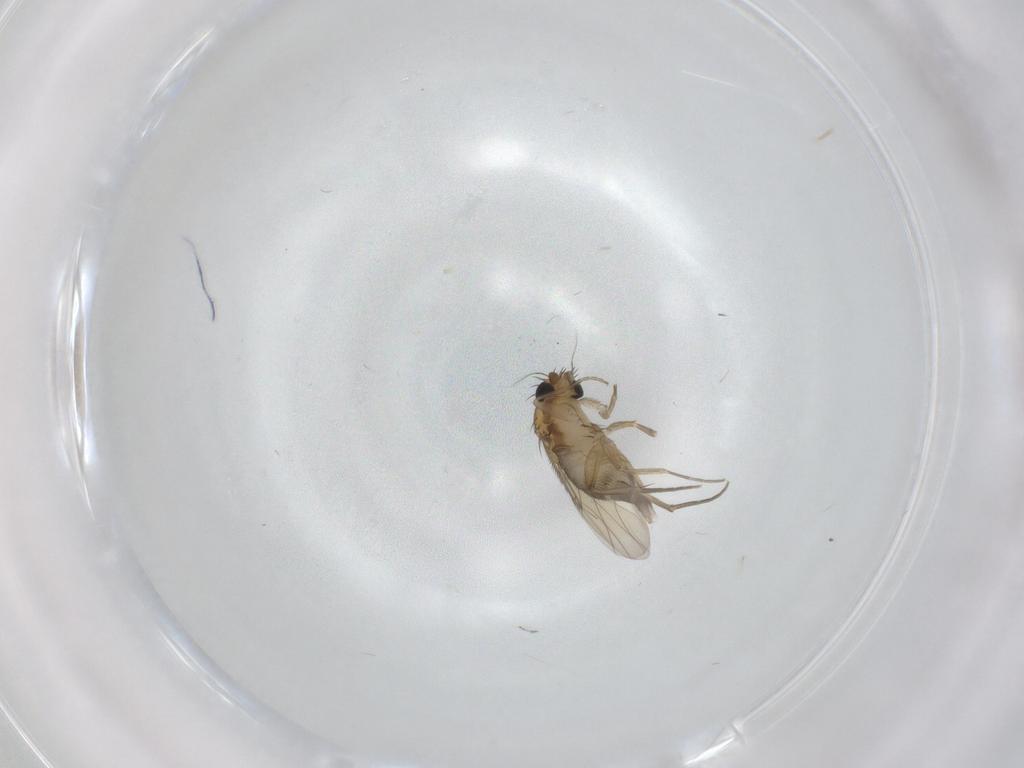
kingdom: Animalia
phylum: Arthropoda
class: Insecta
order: Diptera
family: Phoridae
